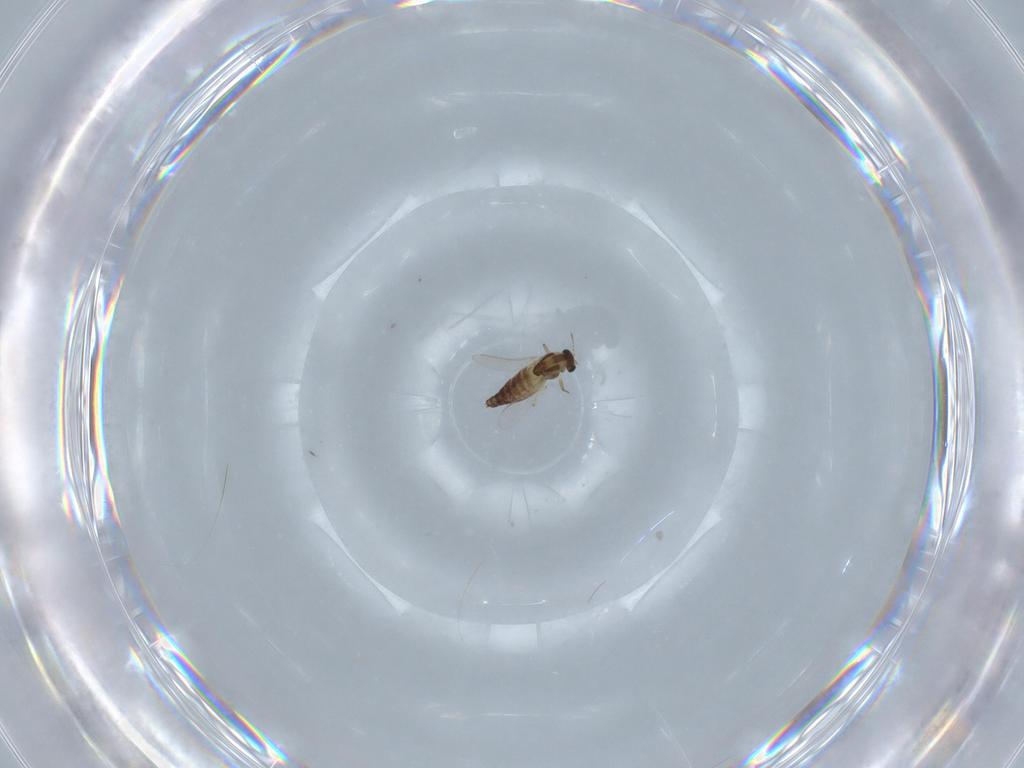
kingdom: Animalia
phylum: Arthropoda
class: Insecta
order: Diptera
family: Chironomidae
